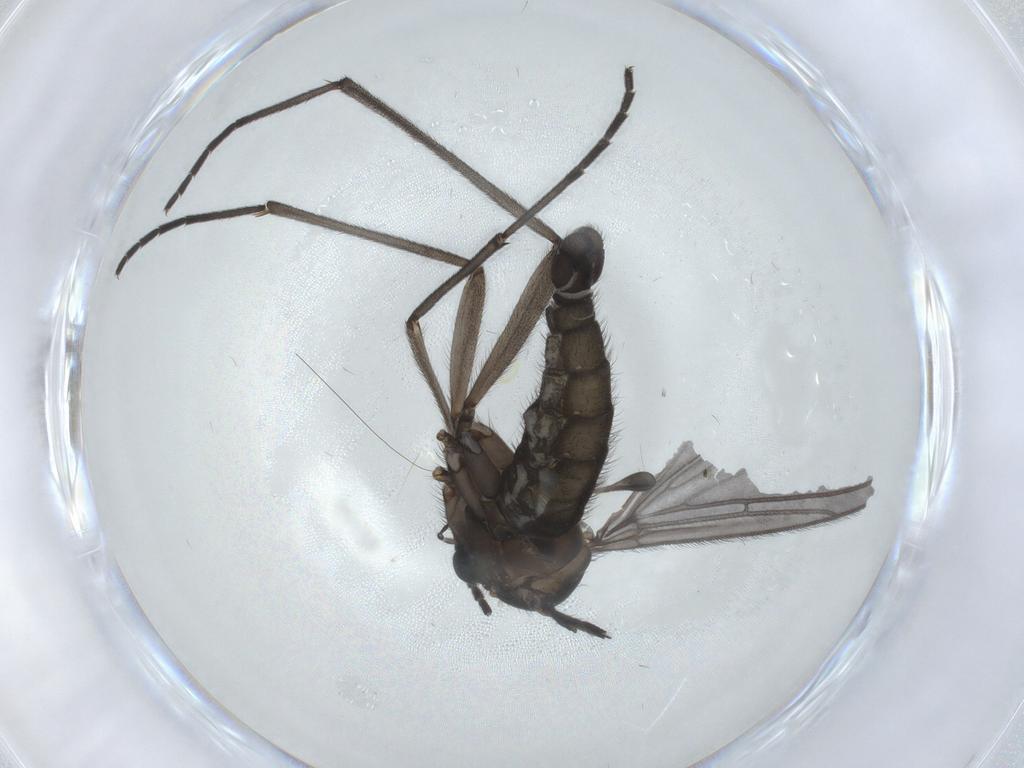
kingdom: Animalia
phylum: Arthropoda
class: Insecta
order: Diptera
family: Sciaridae
